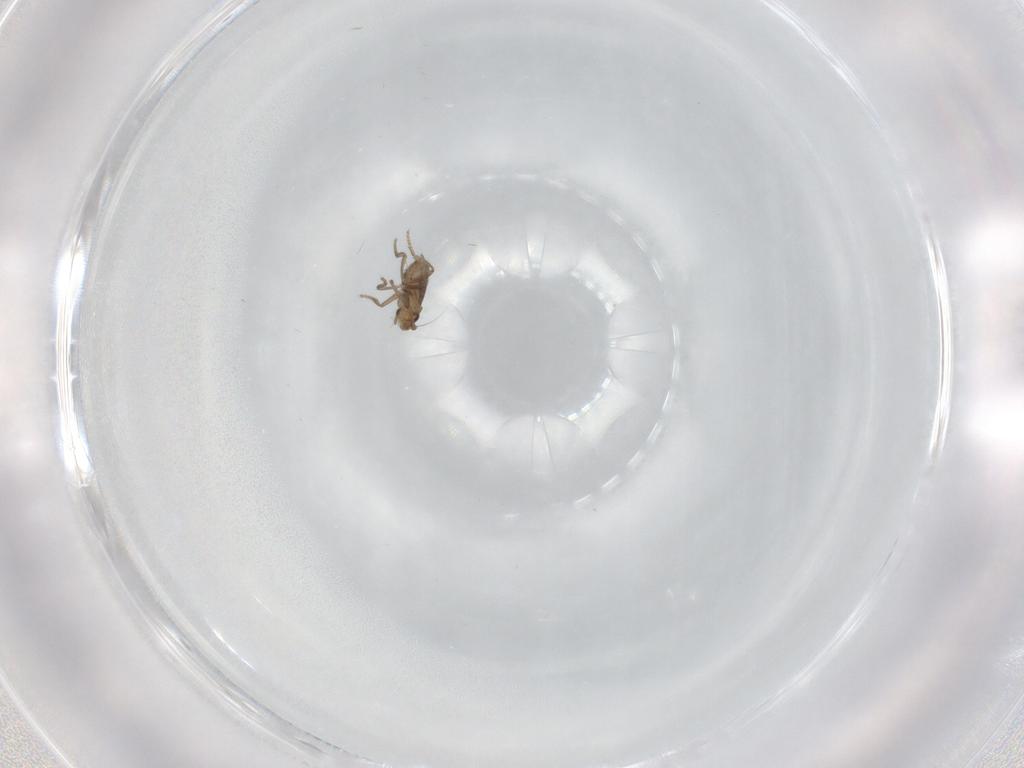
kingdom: Animalia
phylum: Arthropoda
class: Insecta
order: Diptera
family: Phoridae
